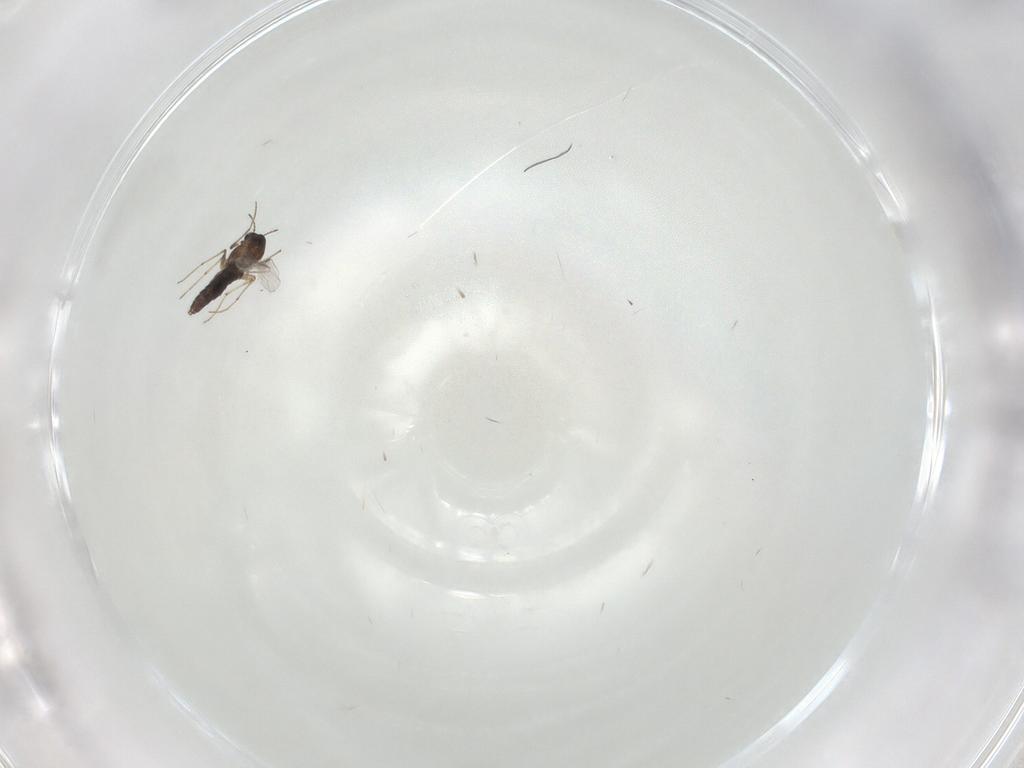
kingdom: Animalia
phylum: Arthropoda
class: Insecta
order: Diptera
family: Chironomidae
